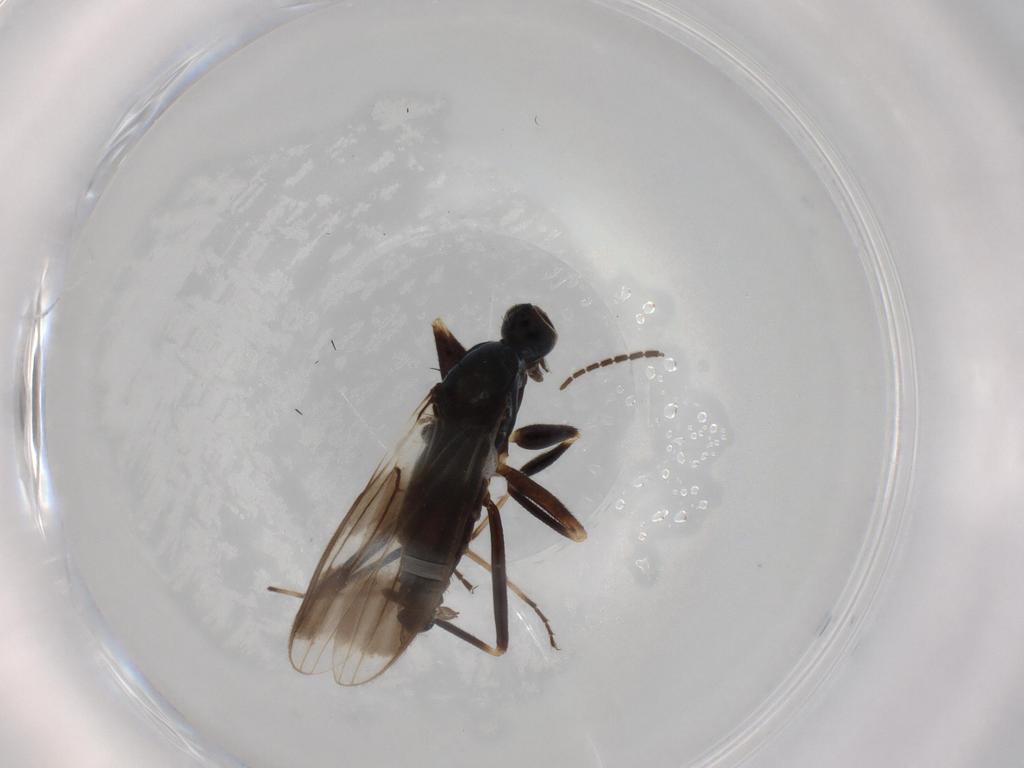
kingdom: Animalia
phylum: Arthropoda
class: Insecta
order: Diptera
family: Hybotidae
